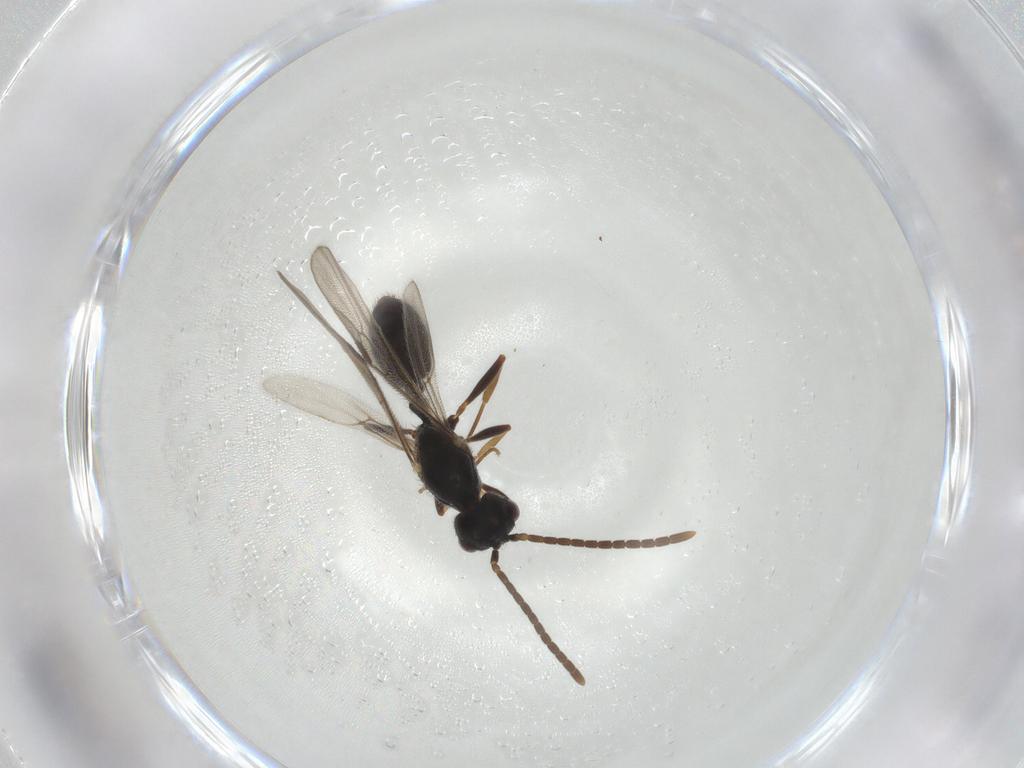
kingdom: Animalia
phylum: Arthropoda
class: Insecta
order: Hymenoptera
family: Formicidae
